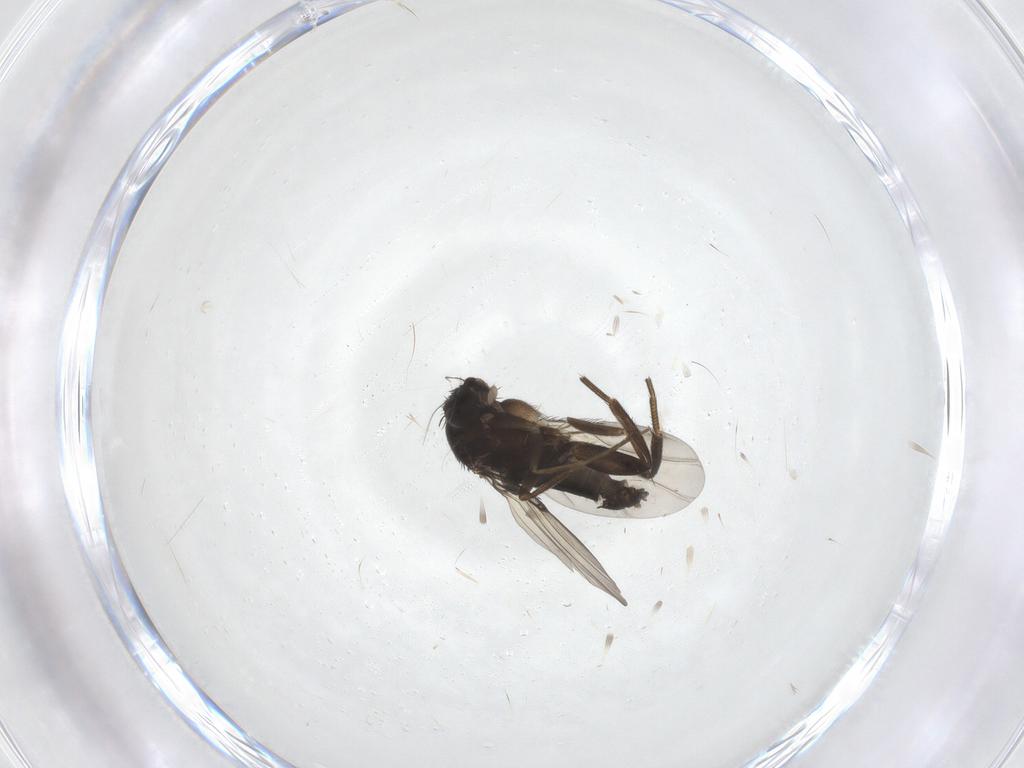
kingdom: Animalia
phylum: Arthropoda
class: Insecta
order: Diptera
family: Phoridae
